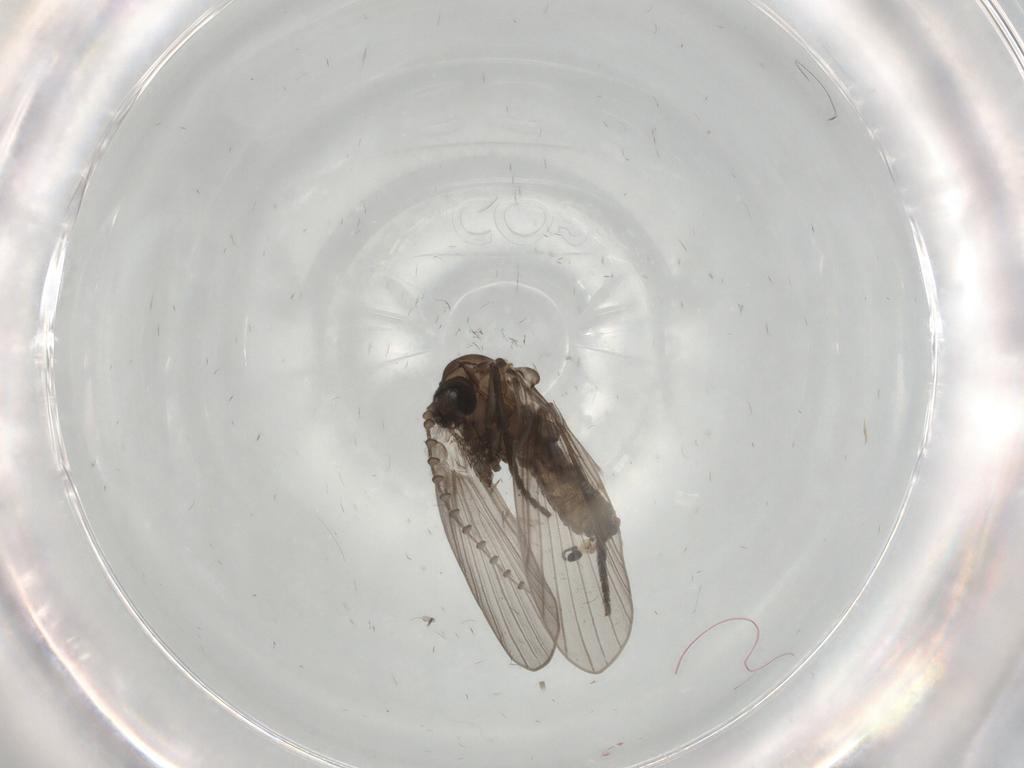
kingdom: Animalia
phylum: Arthropoda
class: Insecta
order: Diptera
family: Psychodidae
